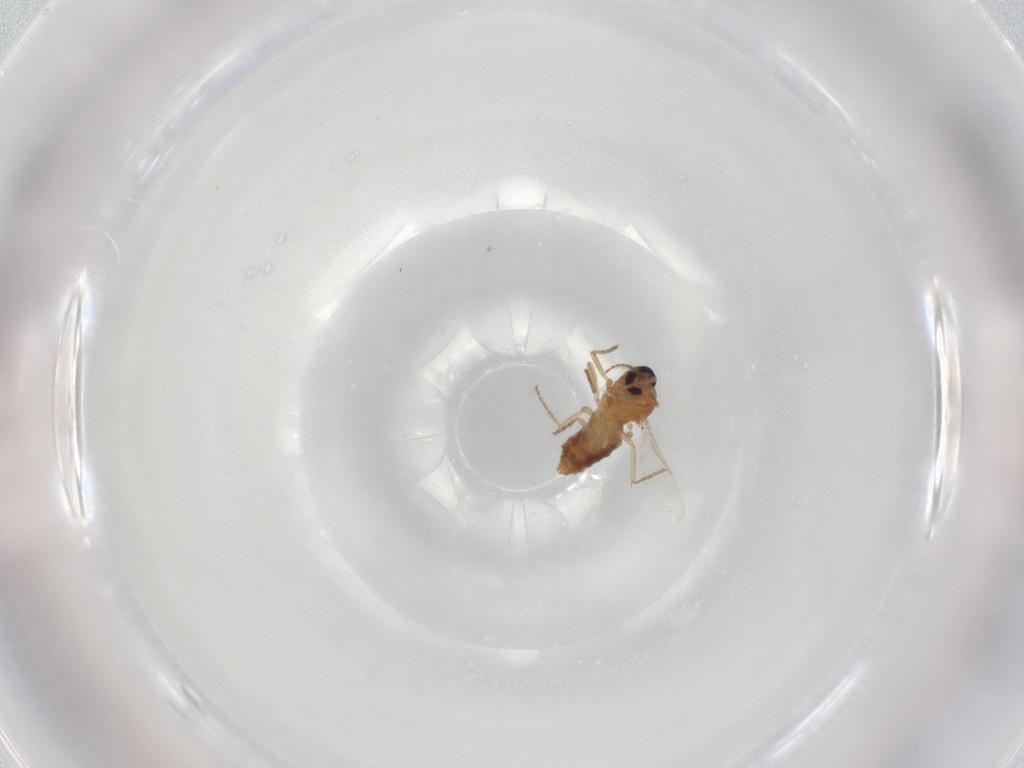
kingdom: Animalia
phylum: Arthropoda
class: Insecta
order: Diptera
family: Ceratopogonidae
